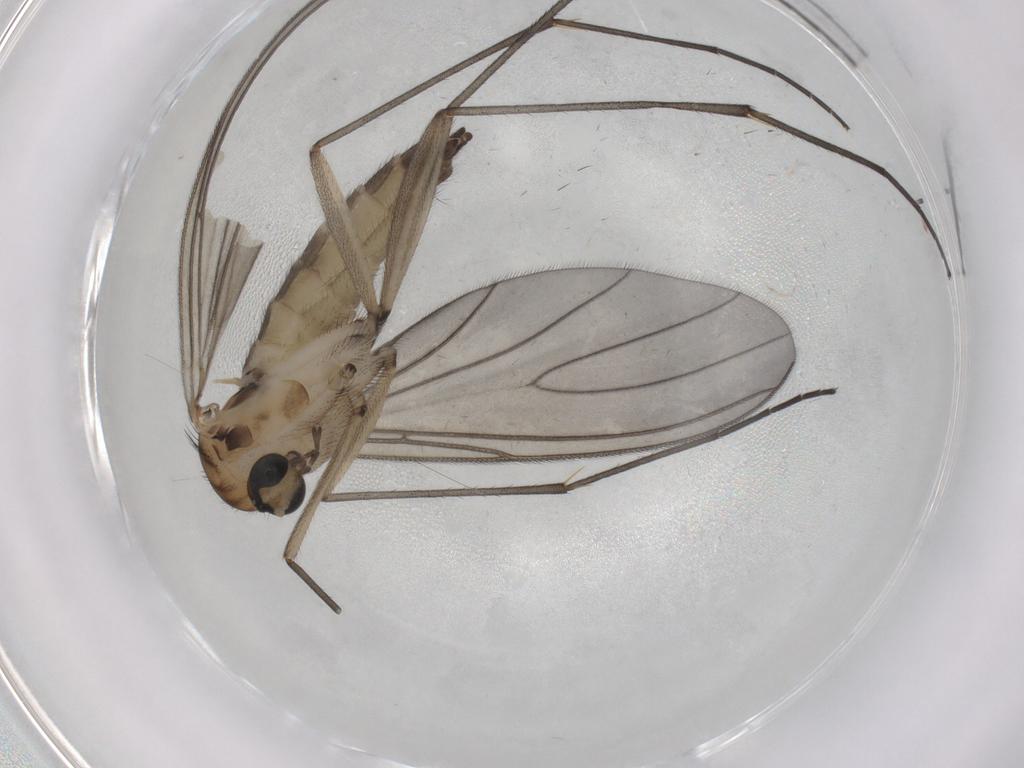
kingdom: Animalia
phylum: Arthropoda
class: Insecta
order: Diptera
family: Sciaridae
